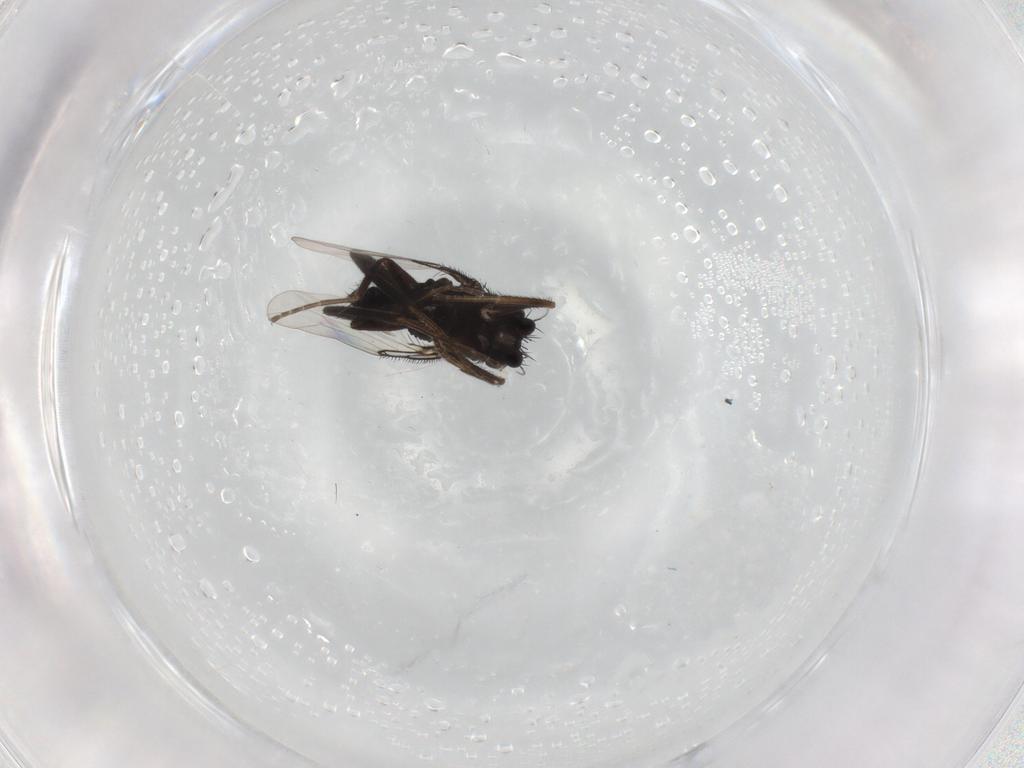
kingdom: Animalia
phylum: Arthropoda
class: Insecta
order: Diptera
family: Phoridae
